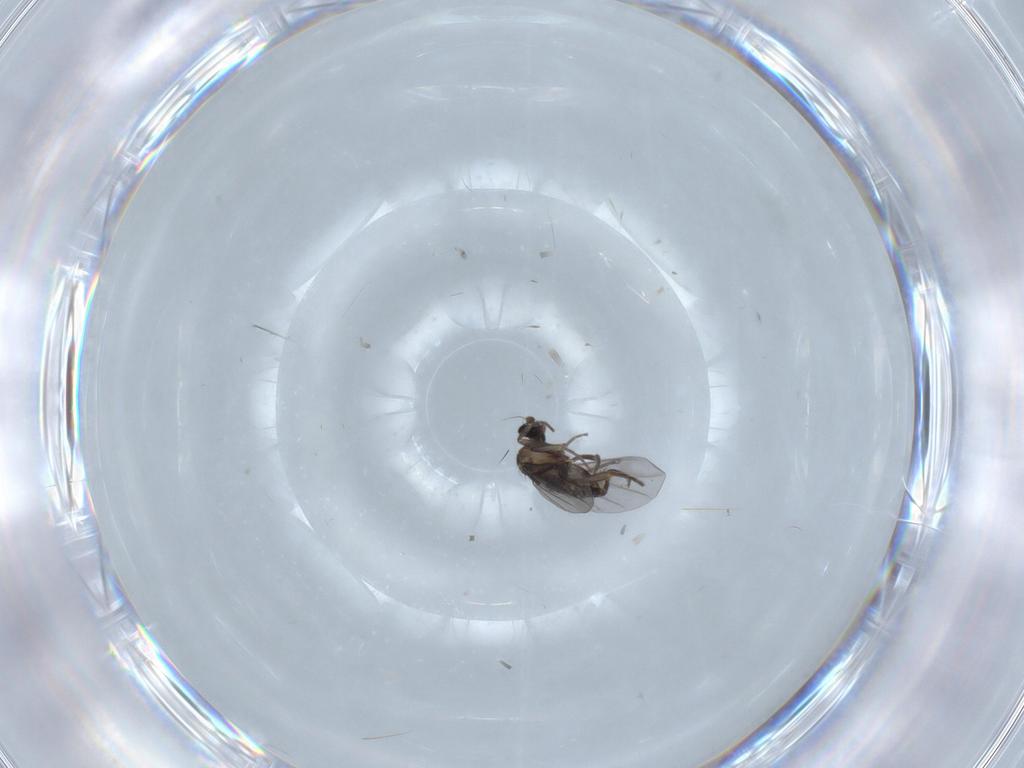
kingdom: Animalia
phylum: Arthropoda
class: Insecta
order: Diptera
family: Phoridae
